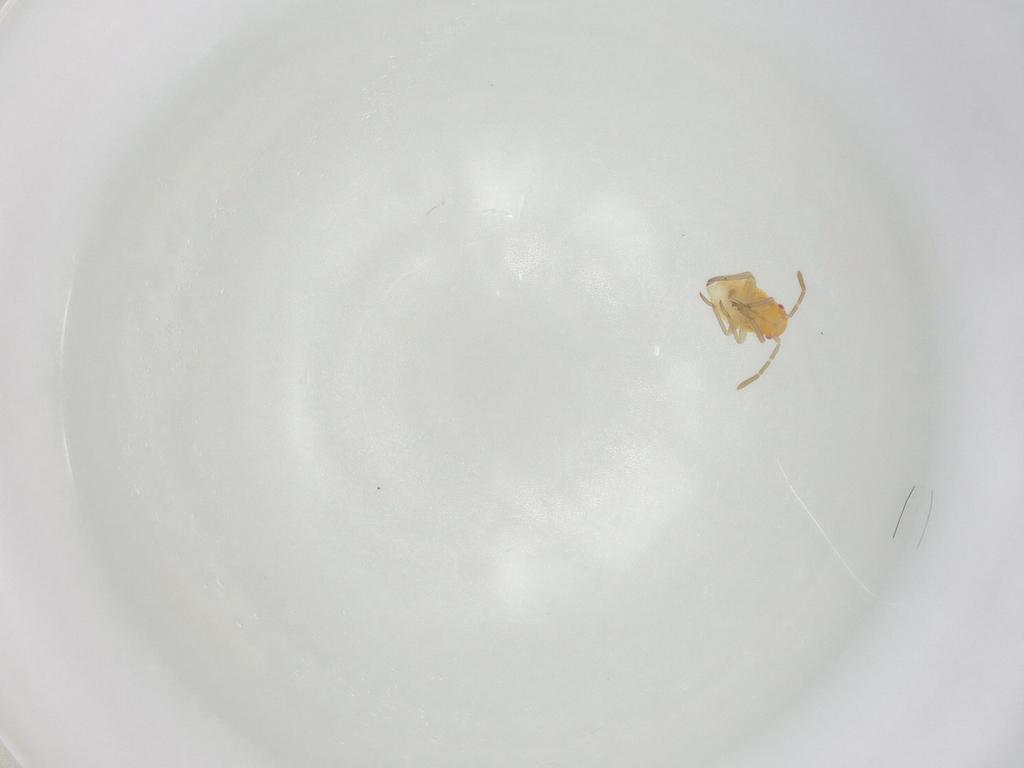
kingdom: Animalia
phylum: Arthropoda
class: Insecta
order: Hemiptera
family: Miridae
